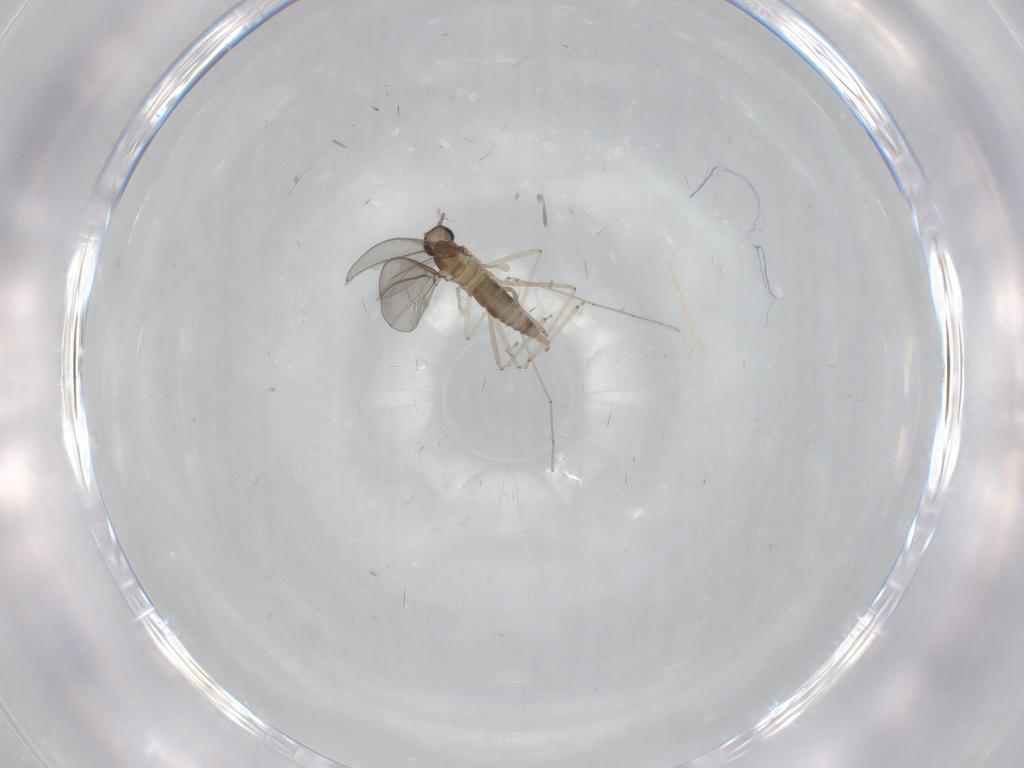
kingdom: Animalia
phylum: Arthropoda
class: Insecta
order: Diptera
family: Cecidomyiidae
